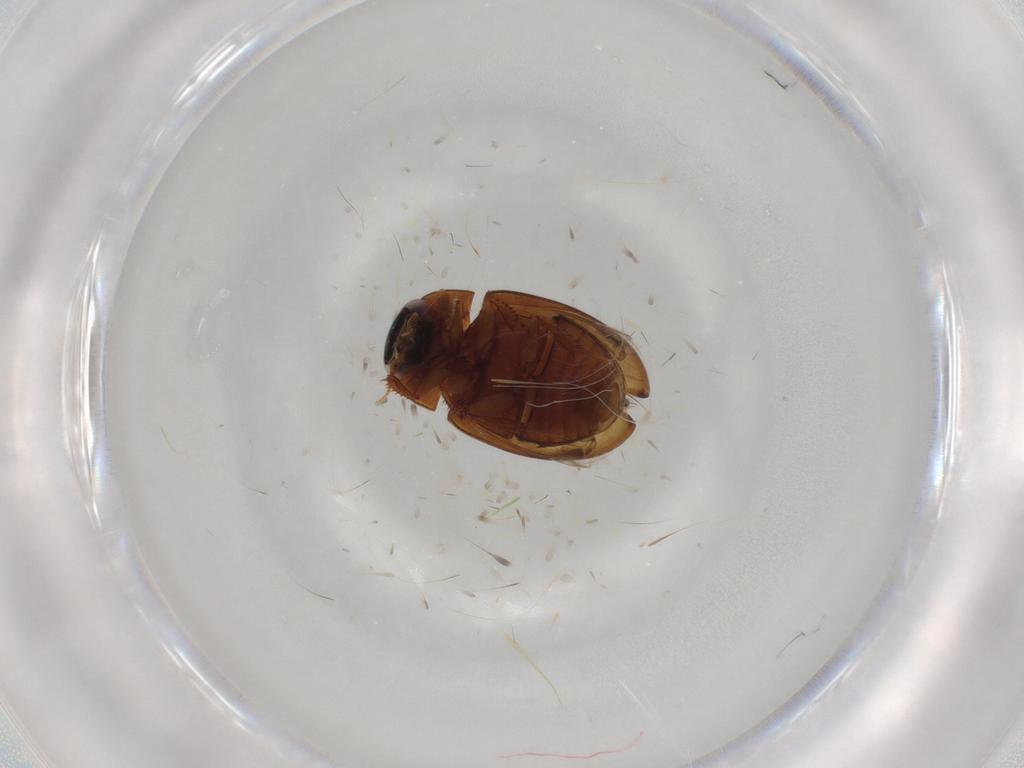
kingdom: Animalia
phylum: Arthropoda
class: Insecta
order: Coleoptera
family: Hydrophilidae
